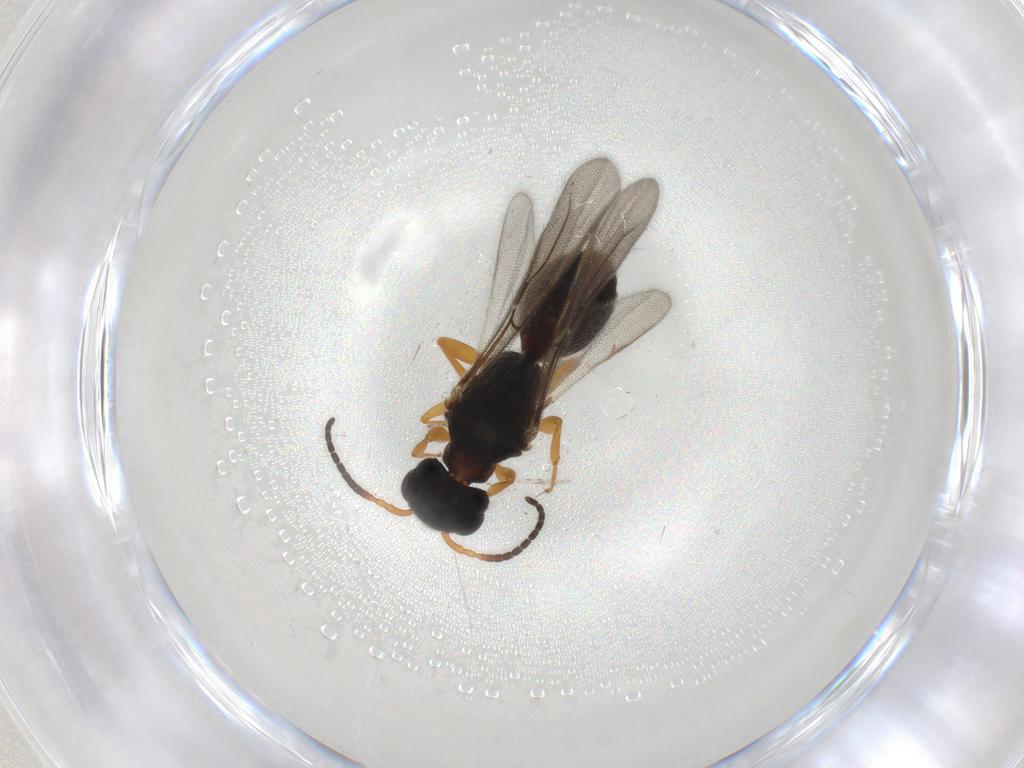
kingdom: Animalia
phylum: Arthropoda
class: Insecta
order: Hymenoptera
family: Bethylidae
